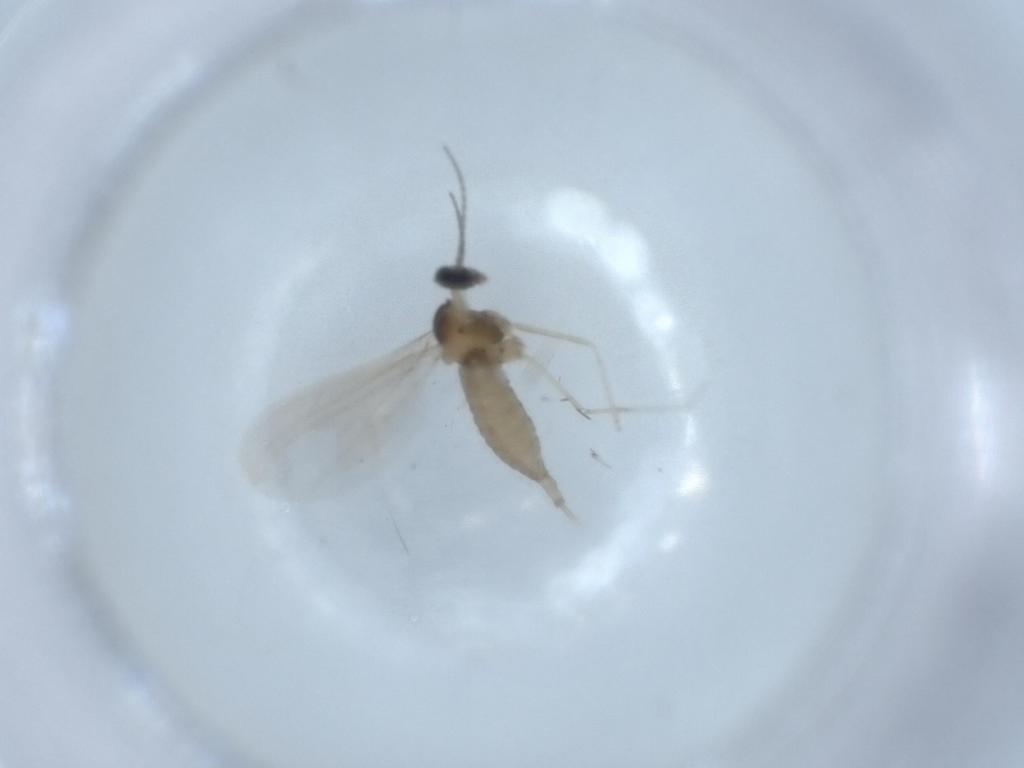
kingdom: Animalia
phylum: Arthropoda
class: Insecta
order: Diptera
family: Cecidomyiidae
